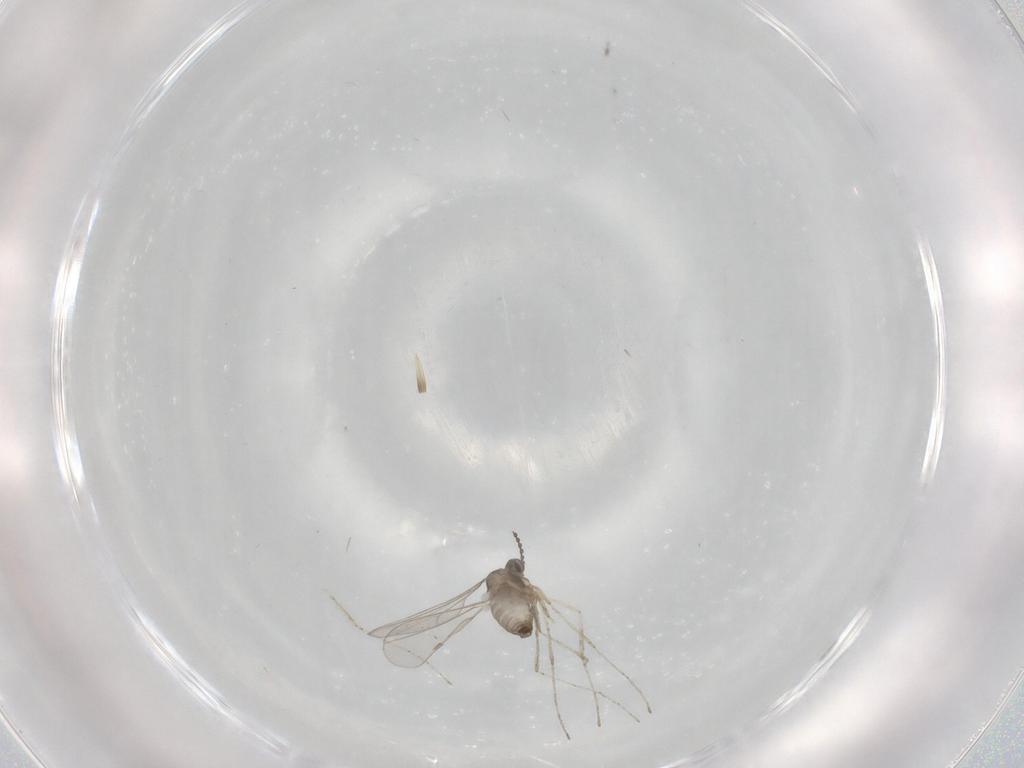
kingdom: Animalia
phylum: Arthropoda
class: Insecta
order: Diptera
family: Cecidomyiidae
